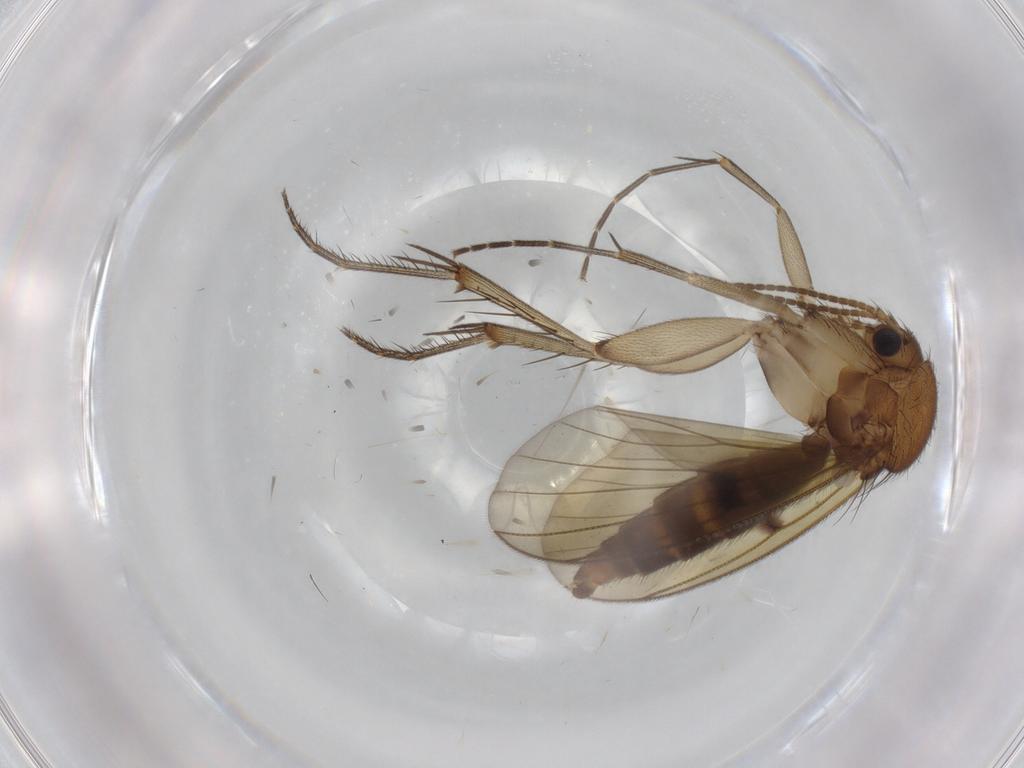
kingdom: Animalia
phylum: Arthropoda
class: Insecta
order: Diptera
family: Mycetophilidae
